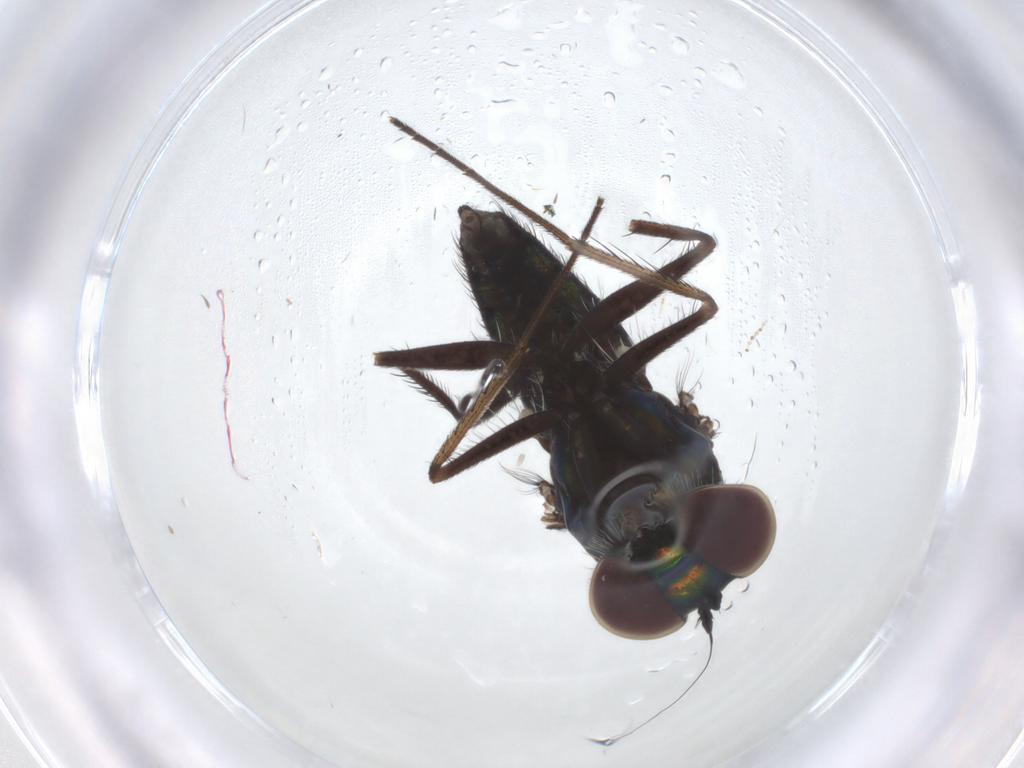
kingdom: Animalia
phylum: Arthropoda
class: Insecta
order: Diptera
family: Dolichopodidae
